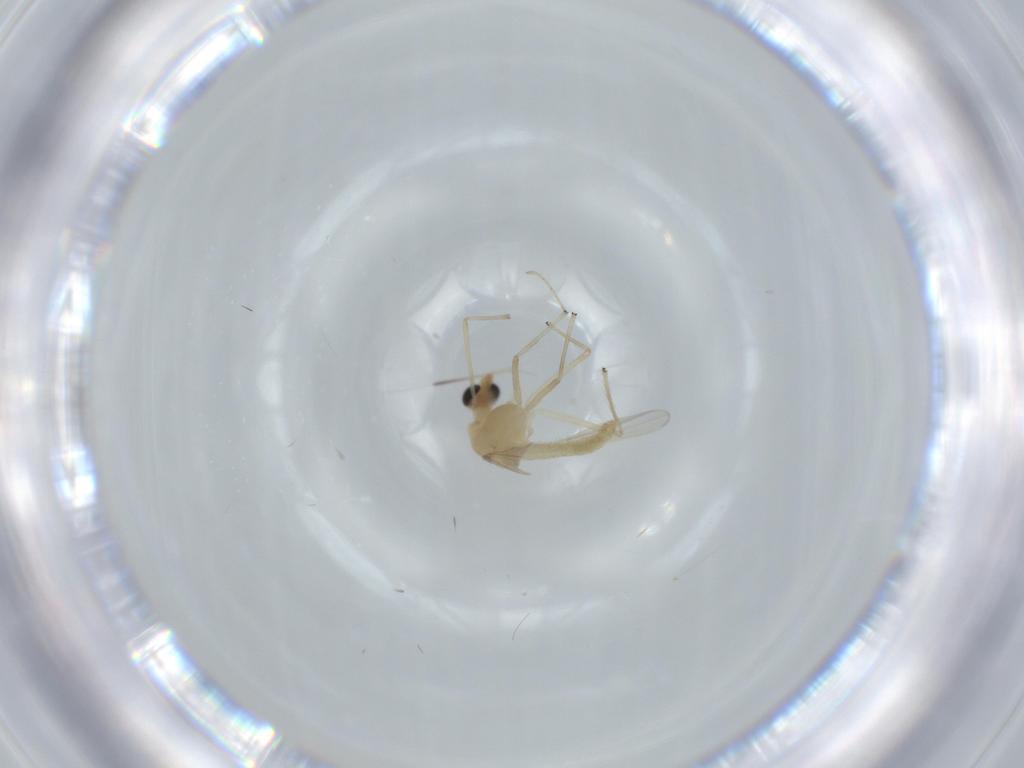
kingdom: Animalia
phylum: Arthropoda
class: Insecta
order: Diptera
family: Chironomidae
